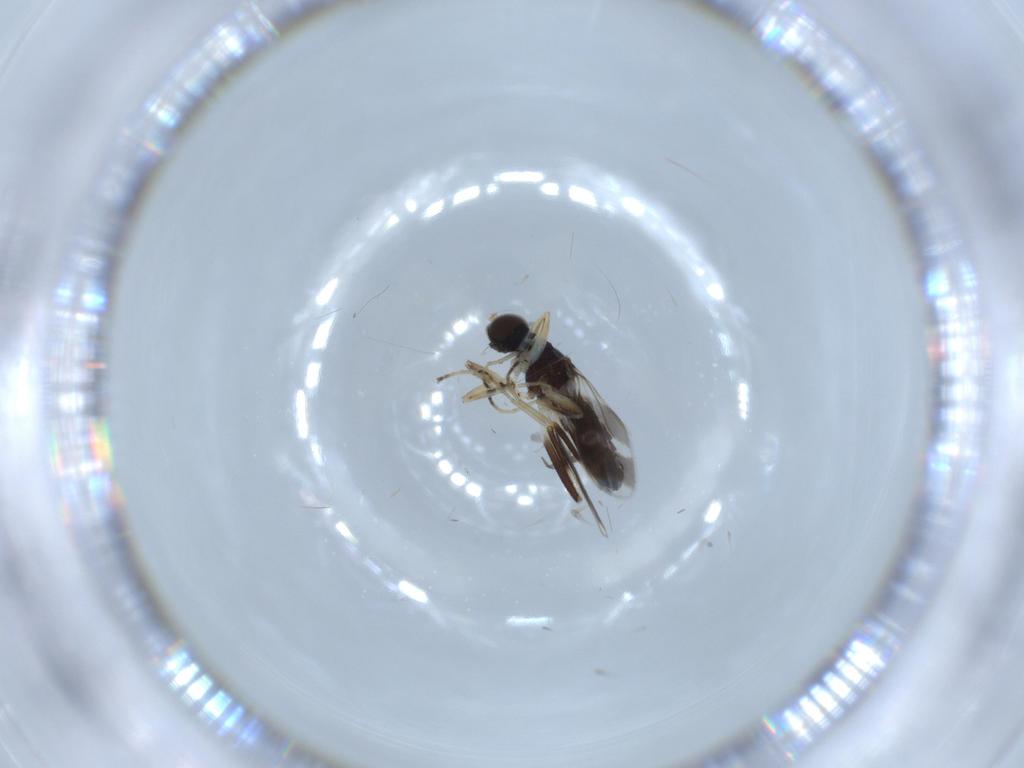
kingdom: Animalia
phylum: Arthropoda
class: Insecta
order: Diptera
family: Hybotidae
